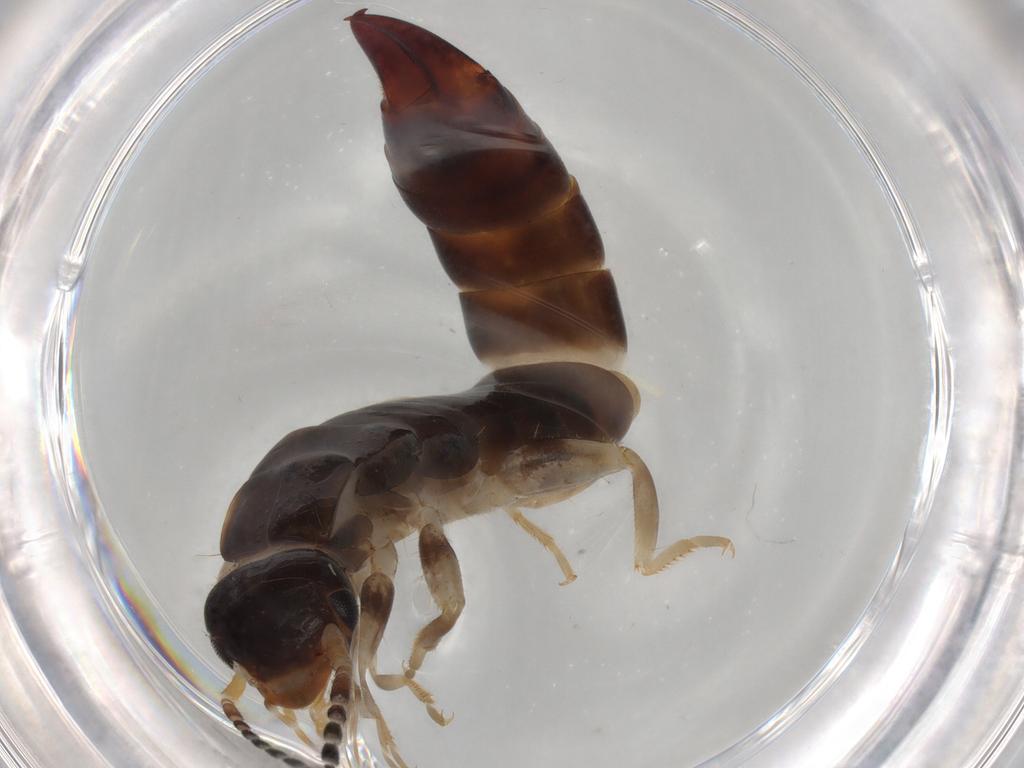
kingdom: Animalia
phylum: Arthropoda
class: Insecta
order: Dermaptera
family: Anisolabididae
